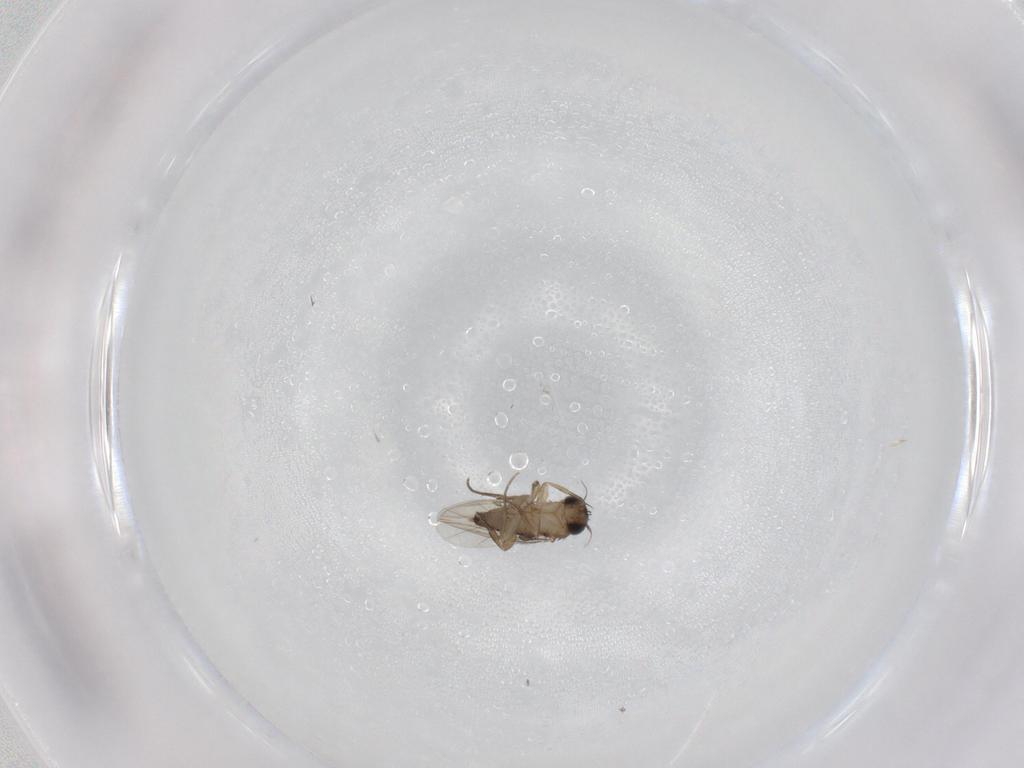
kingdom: Animalia
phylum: Arthropoda
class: Insecta
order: Diptera
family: Phoridae
